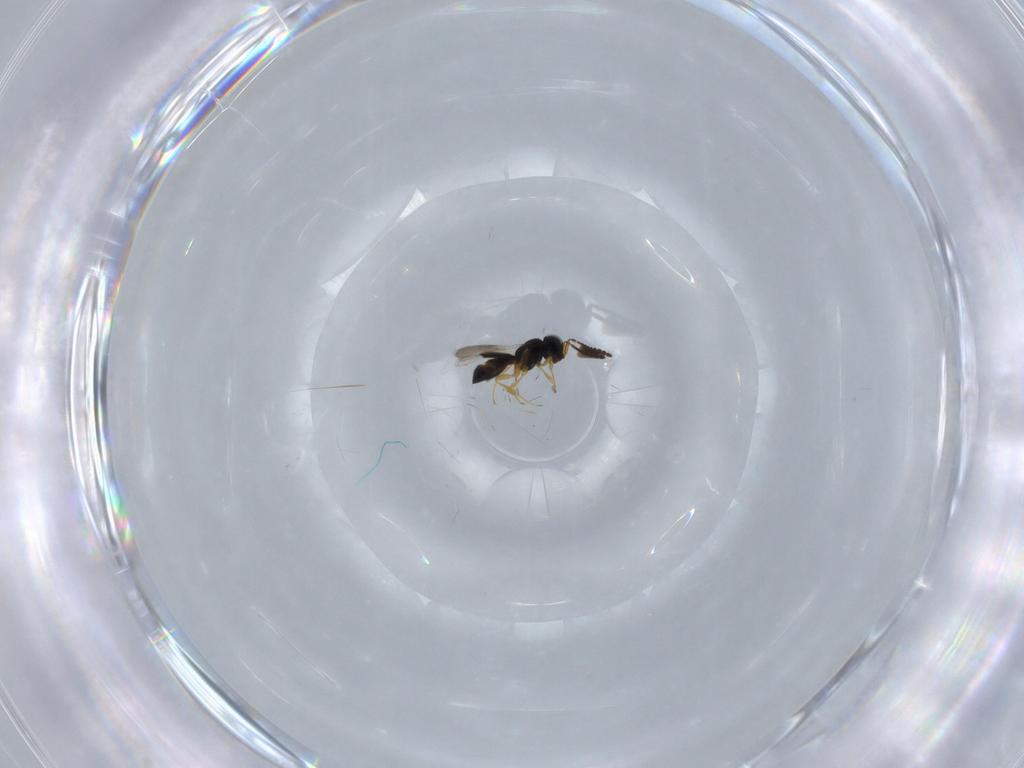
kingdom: Animalia
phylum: Arthropoda
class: Insecta
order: Hymenoptera
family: Scelionidae
